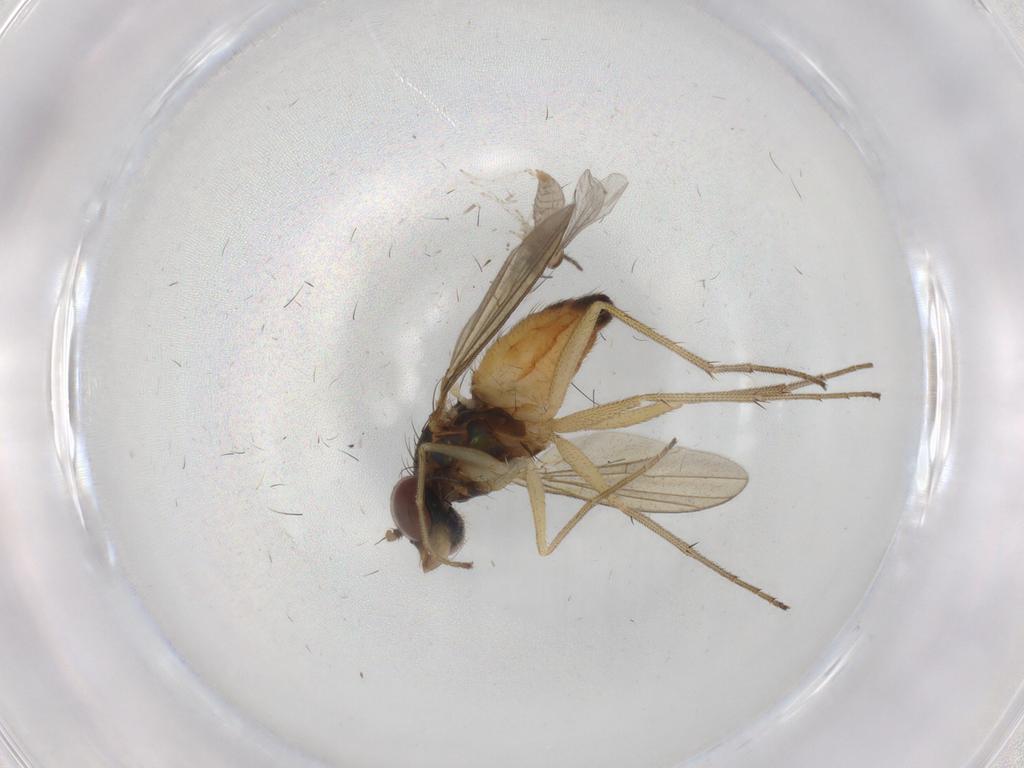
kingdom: Animalia
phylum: Arthropoda
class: Insecta
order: Diptera
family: Dolichopodidae
